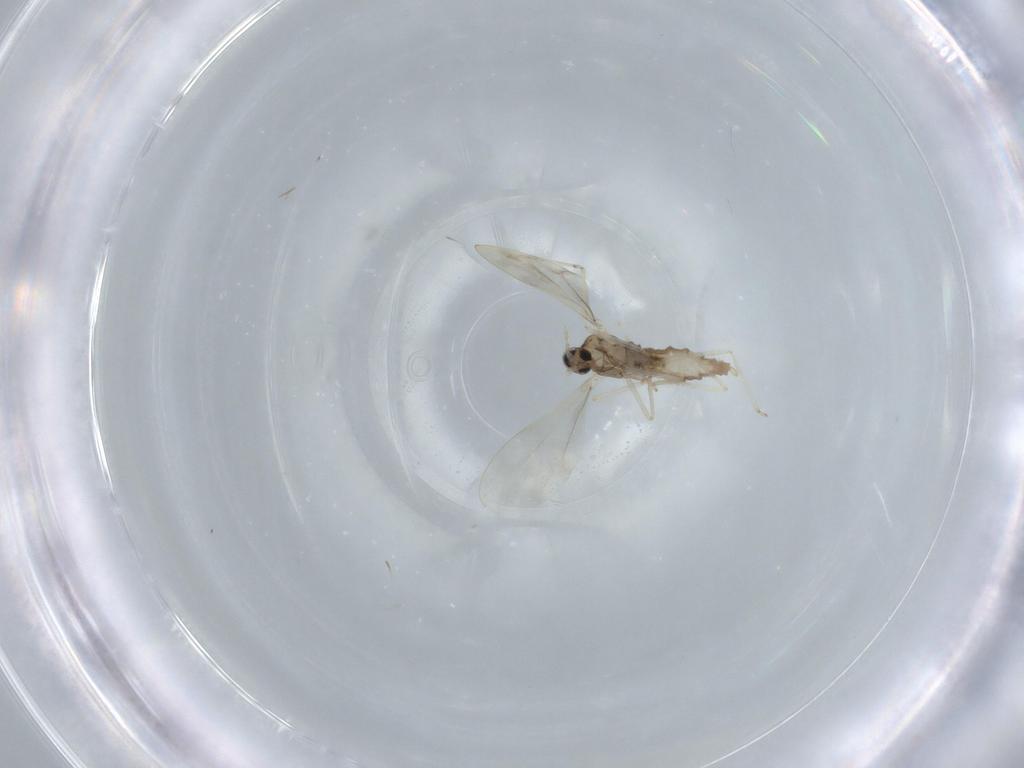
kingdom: Animalia
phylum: Arthropoda
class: Insecta
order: Diptera
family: Cecidomyiidae
